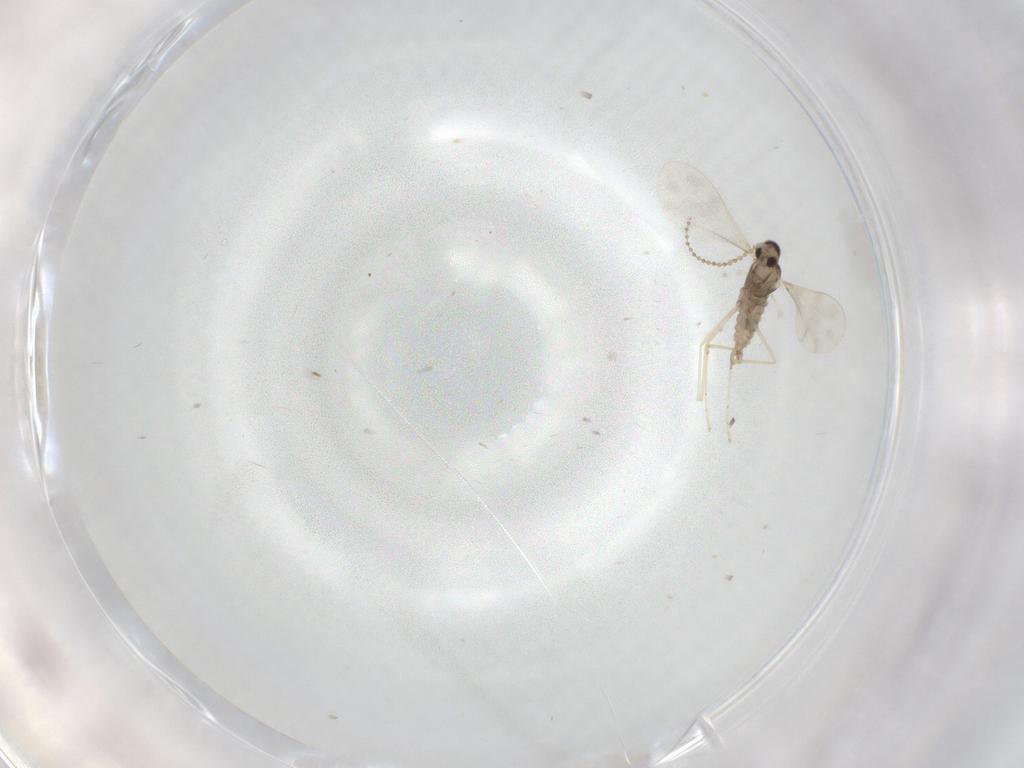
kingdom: Animalia
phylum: Arthropoda
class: Insecta
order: Diptera
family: Cecidomyiidae
